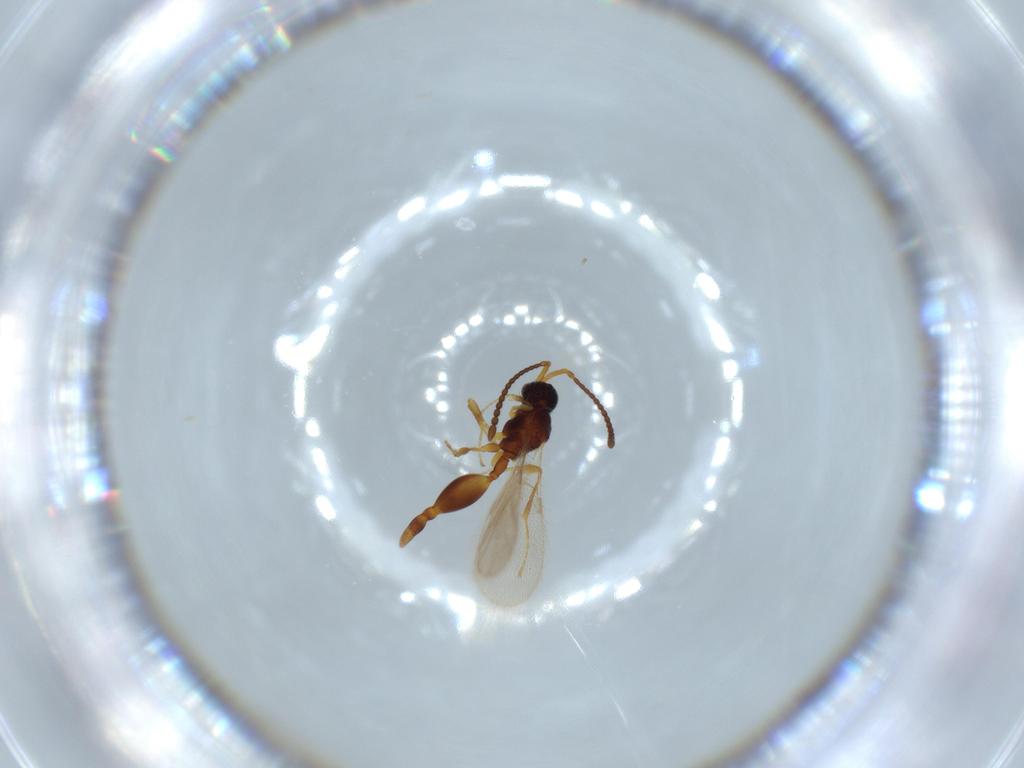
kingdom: Animalia
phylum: Arthropoda
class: Insecta
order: Hymenoptera
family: Diapriidae
